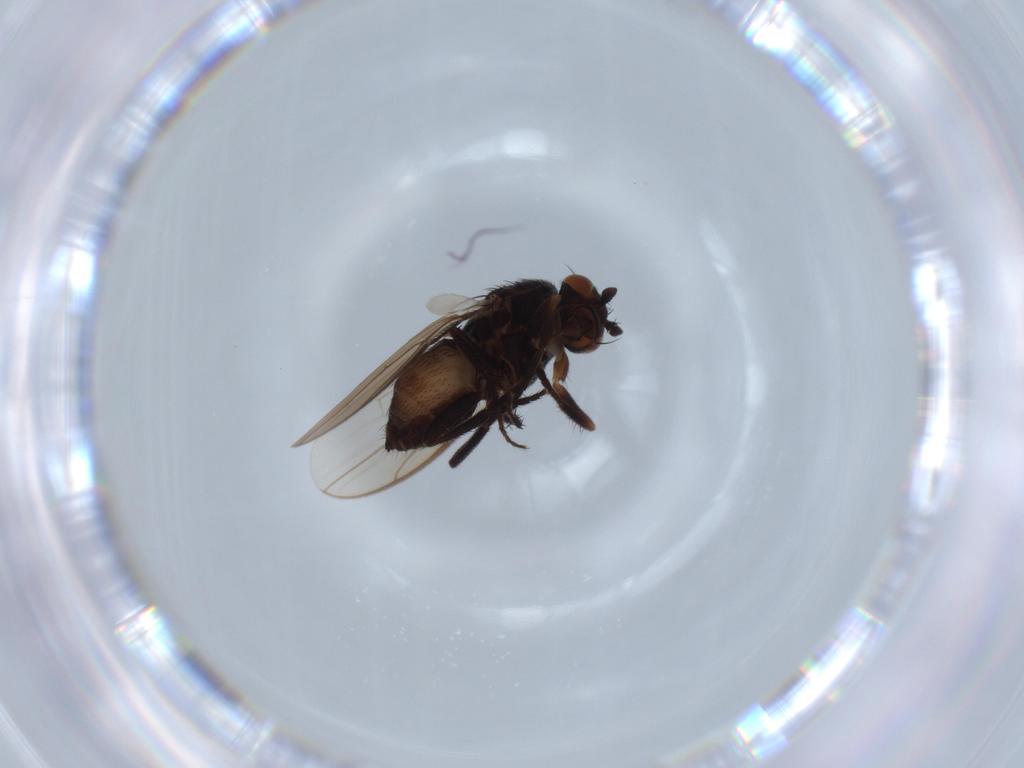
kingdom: Animalia
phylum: Arthropoda
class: Insecta
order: Diptera
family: Sphaeroceridae
